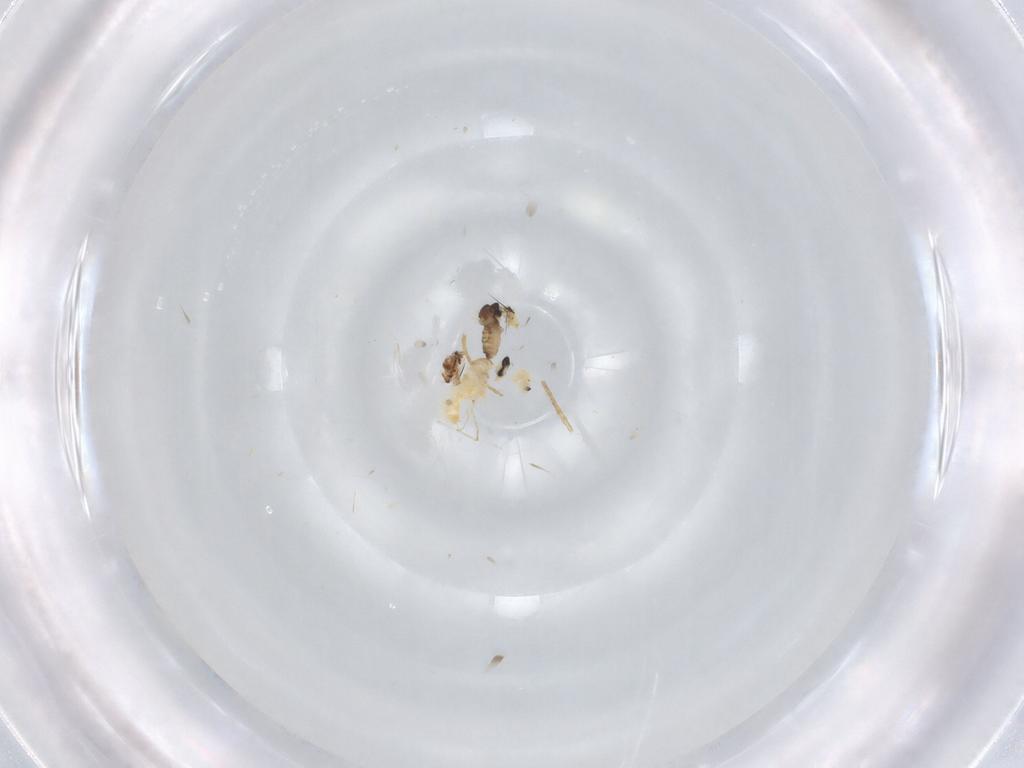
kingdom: Animalia
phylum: Arthropoda
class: Insecta
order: Diptera
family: Cecidomyiidae
